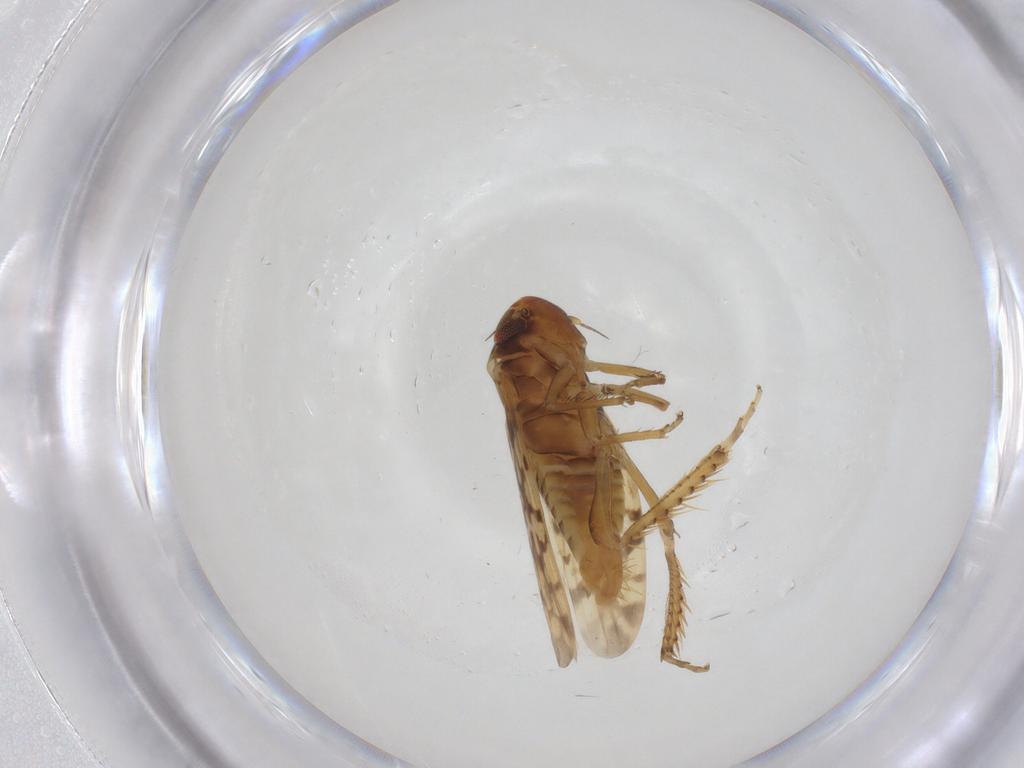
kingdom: Animalia
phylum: Arthropoda
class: Insecta
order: Hemiptera
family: Cicadellidae
